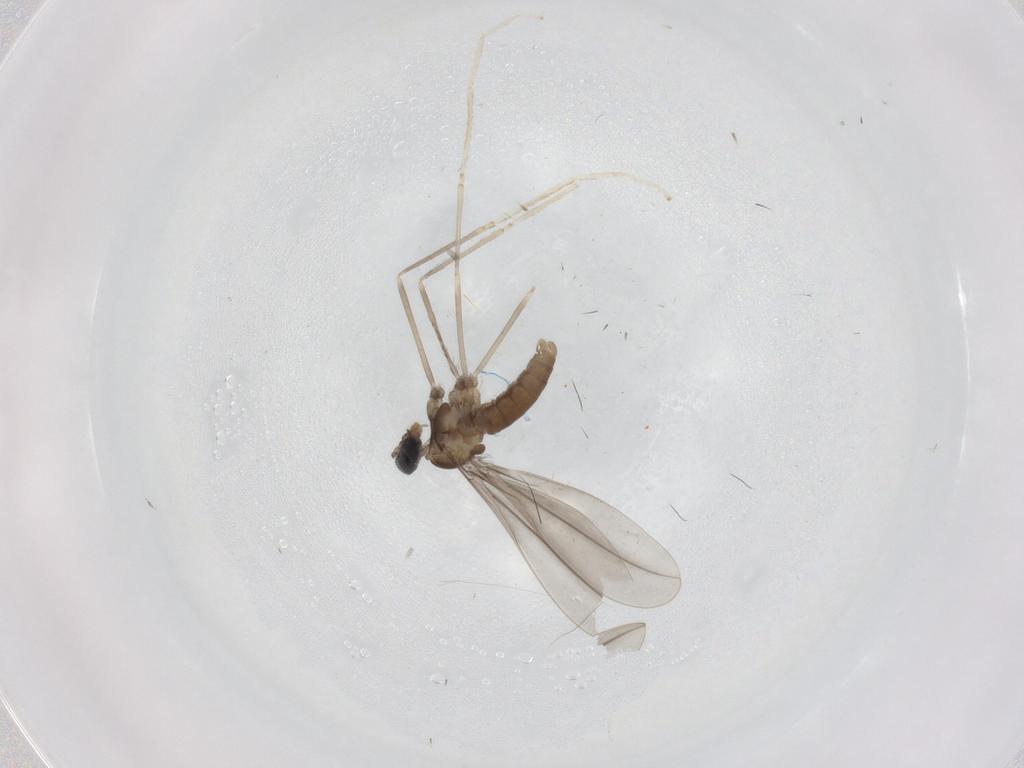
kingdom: Animalia
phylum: Arthropoda
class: Insecta
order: Diptera
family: Cecidomyiidae
